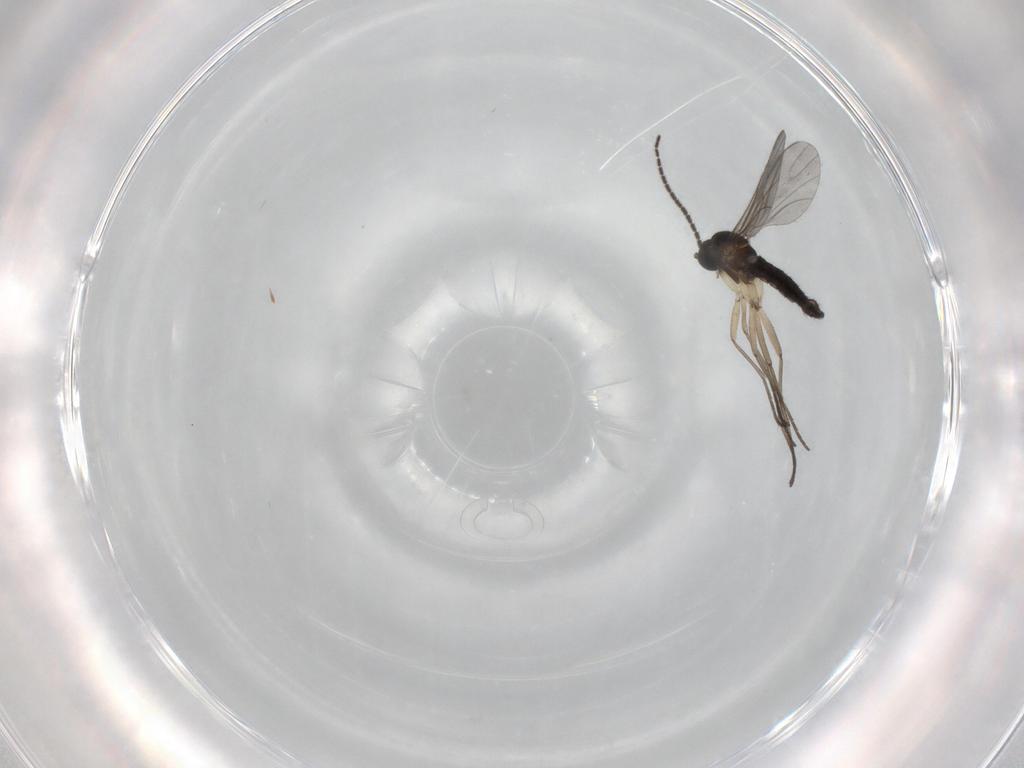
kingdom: Animalia
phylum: Arthropoda
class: Insecta
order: Diptera
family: Sciaridae
